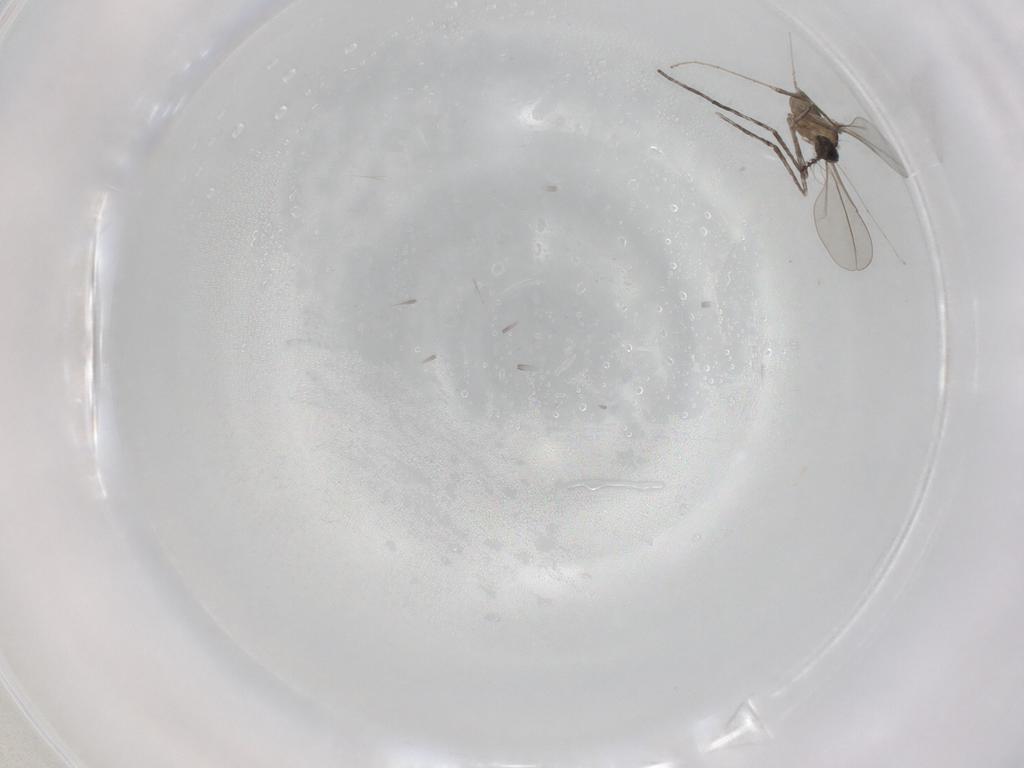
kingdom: Animalia
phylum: Arthropoda
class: Insecta
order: Diptera
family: Cecidomyiidae
